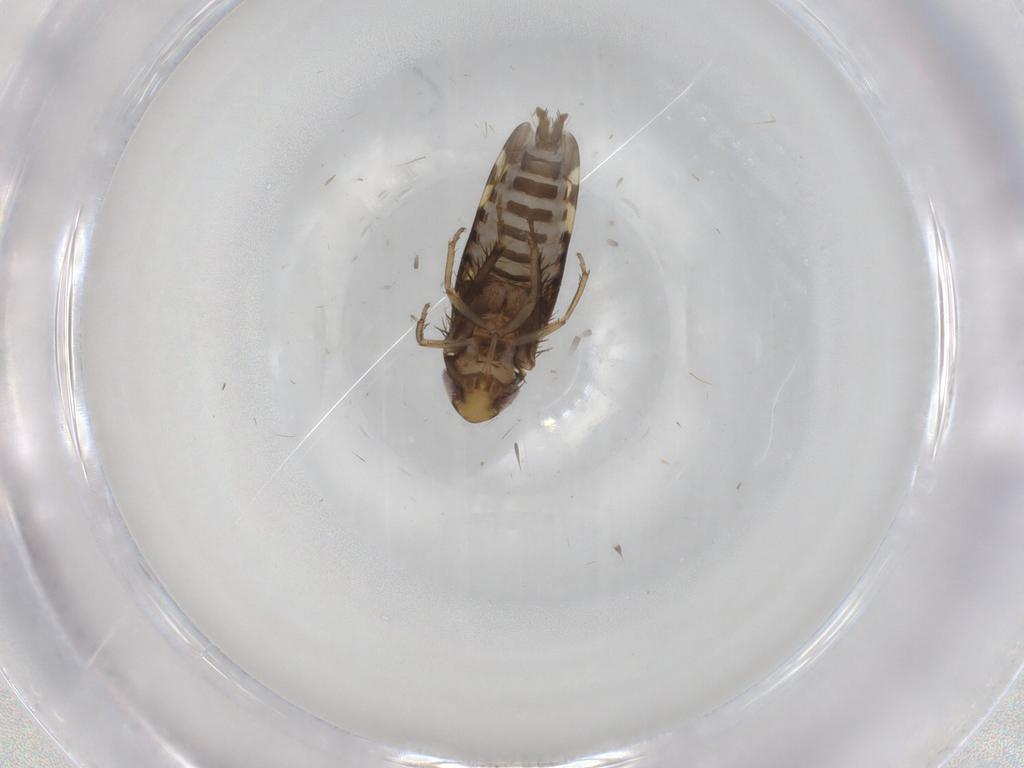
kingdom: Animalia
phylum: Arthropoda
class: Insecta
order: Hemiptera
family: Cicadellidae
